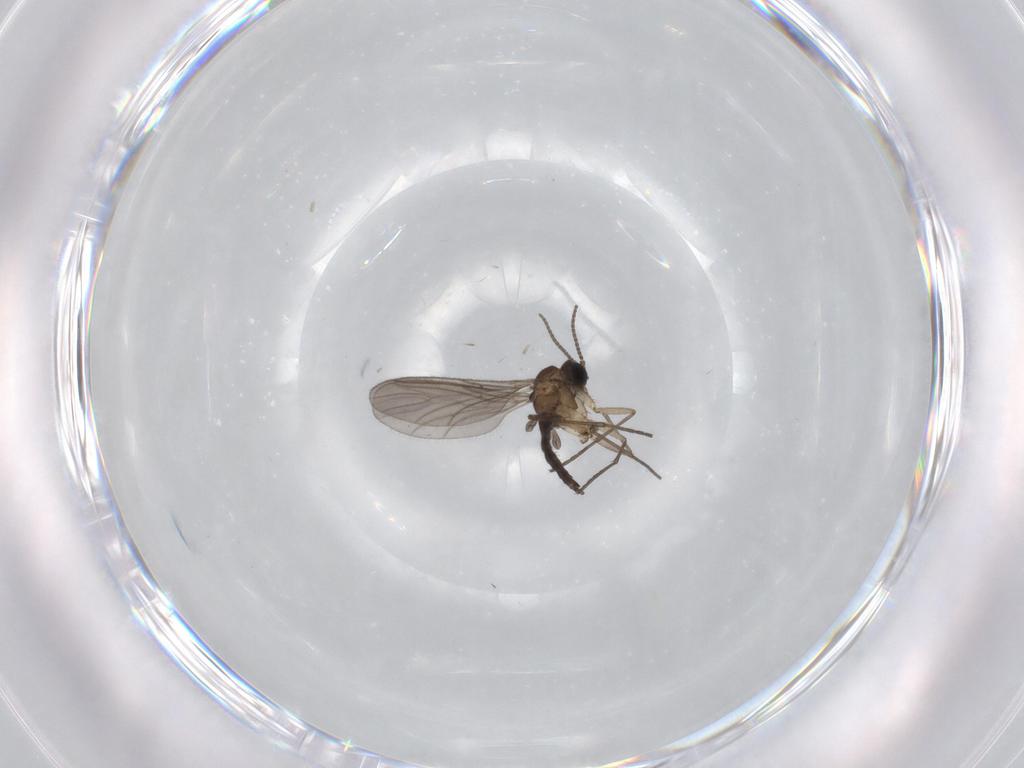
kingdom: Animalia
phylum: Arthropoda
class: Insecta
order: Diptera
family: Sciaridae
